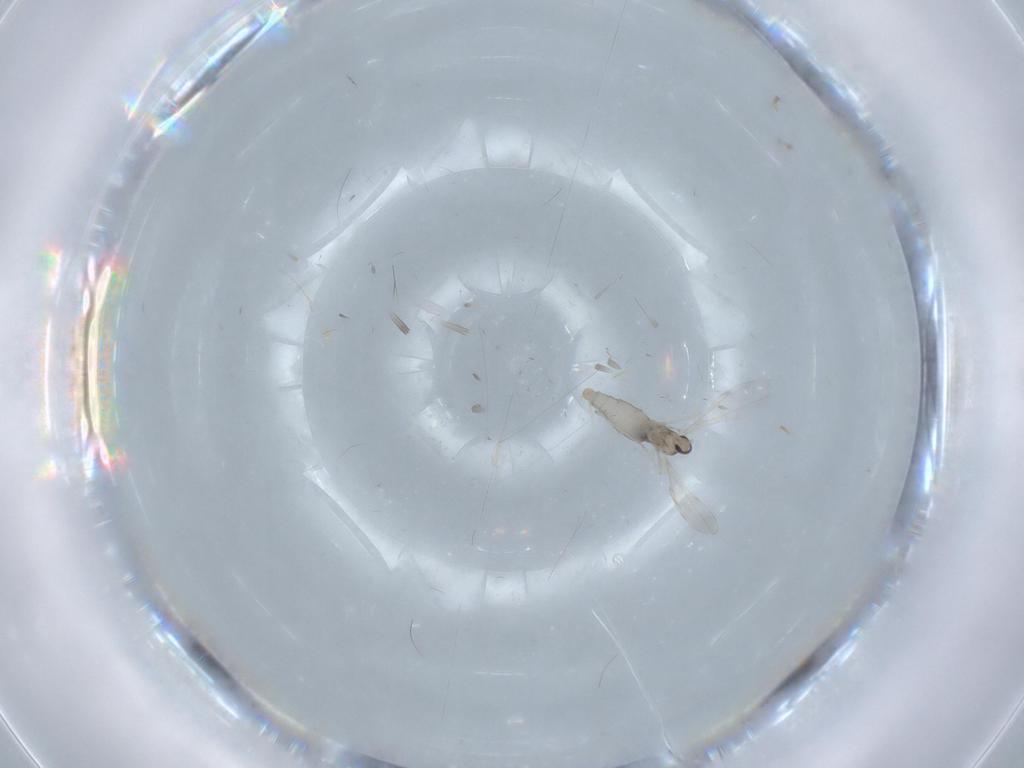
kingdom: Animalia
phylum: Arthropoda
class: Insecta
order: Diptera
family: Cecidomyiidae
